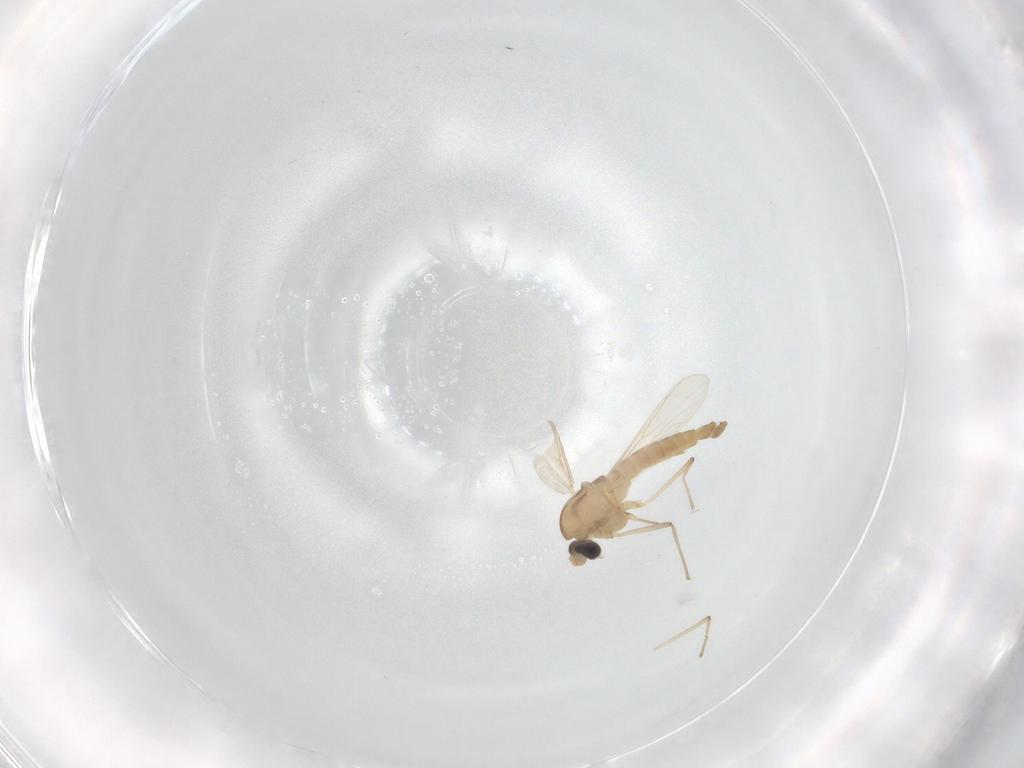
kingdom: Animalia
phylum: Arthropoda
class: Insecta
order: Diptera
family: Chironomidae
